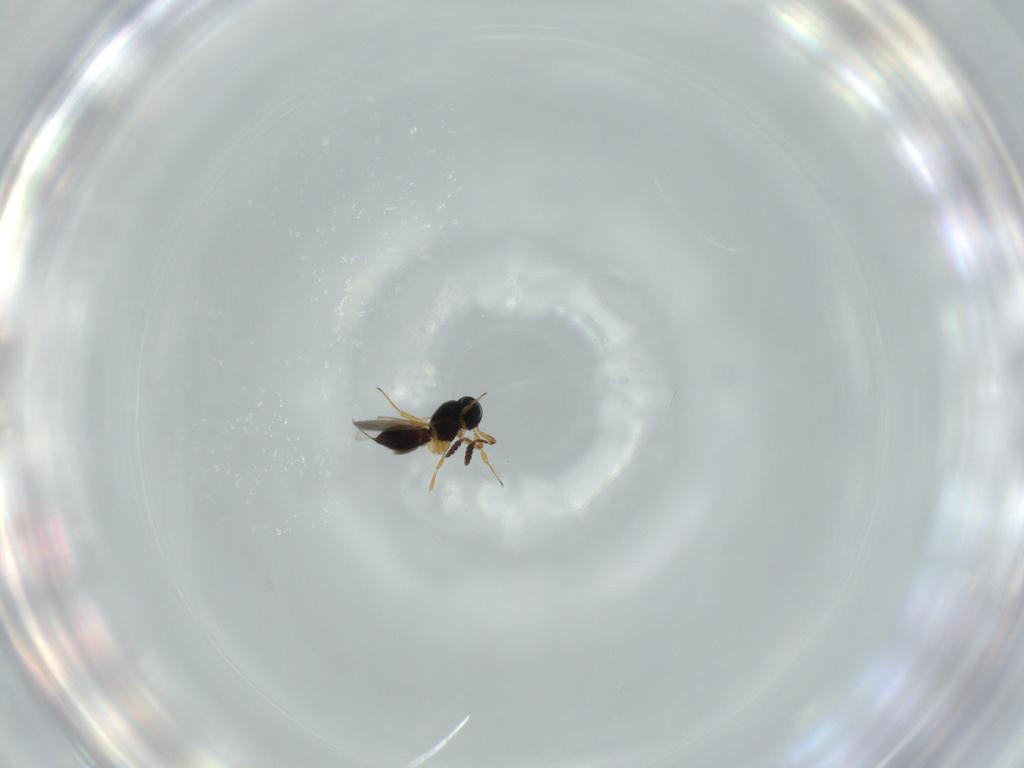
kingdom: Animalia
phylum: Arthropoda
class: Insecta
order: Hymenoptera
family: Scelionidae
